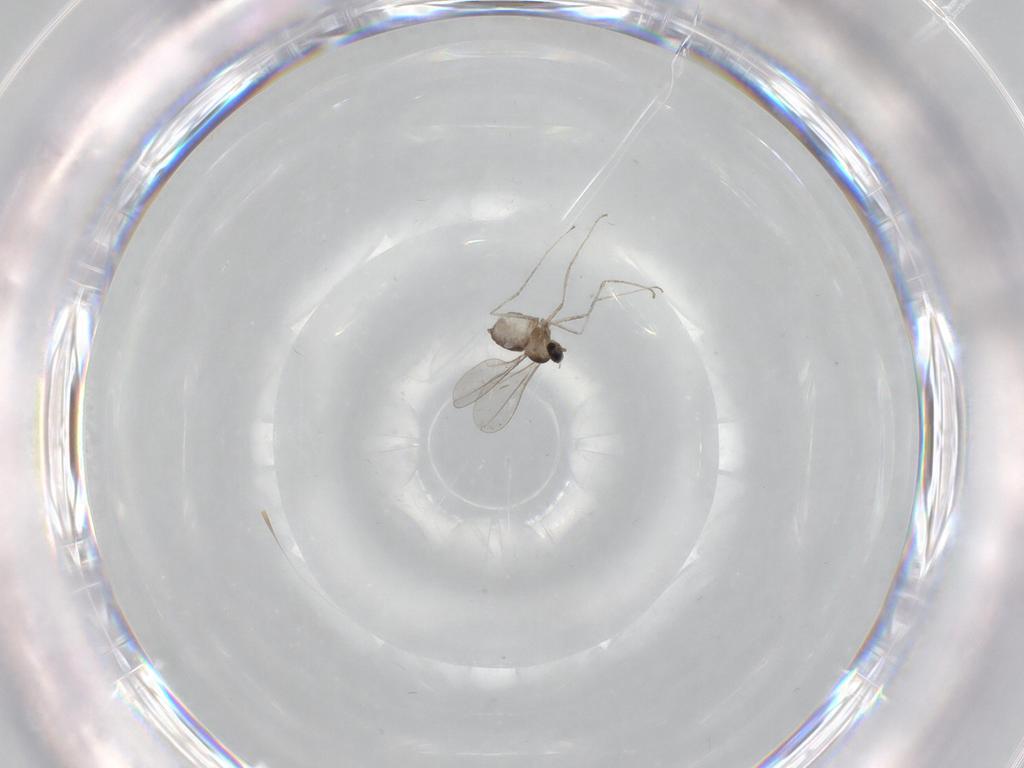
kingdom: Animalia
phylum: Arthropoda
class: Insecta
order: Diptera
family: Cecidomyiidae
